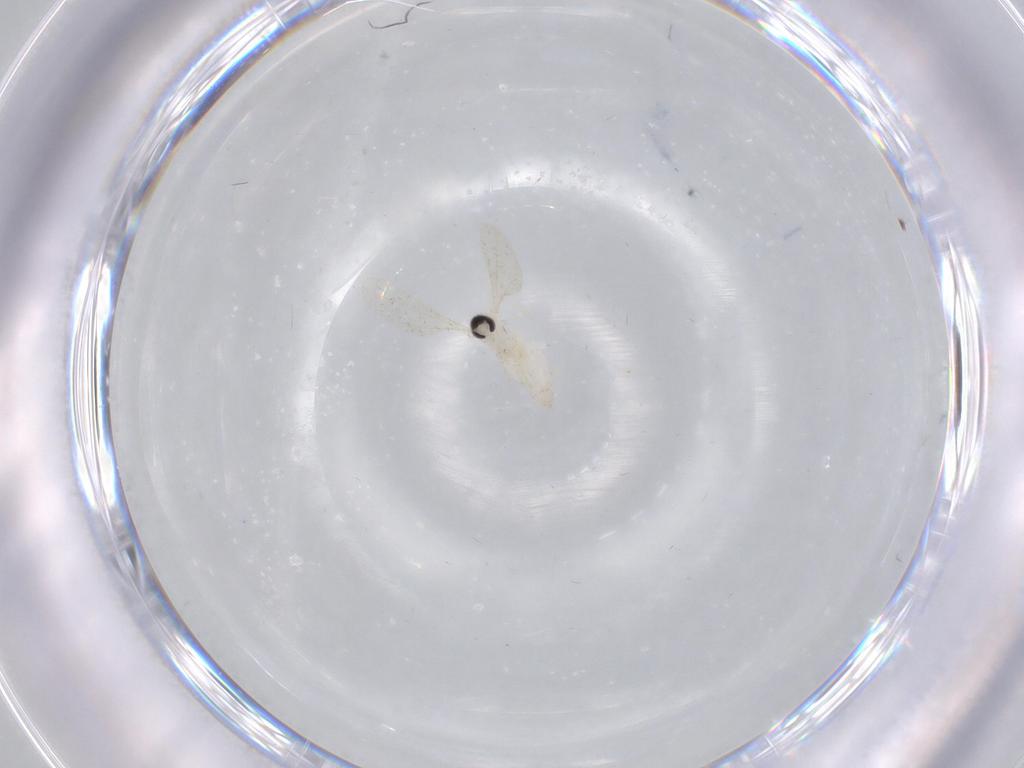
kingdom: Animalia
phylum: Arthropoda
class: Insecta
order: Diptera
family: Cecidomyiidae
